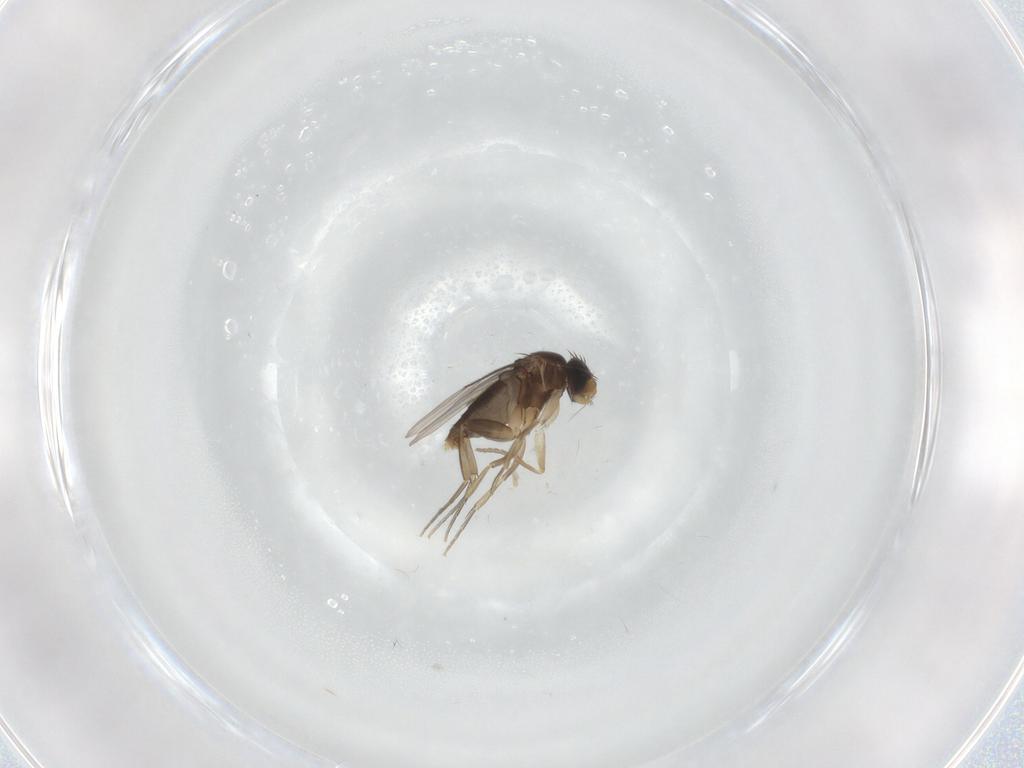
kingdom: Animalia
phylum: Arthropoda
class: Insecta
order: Diptera
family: Phoridae
